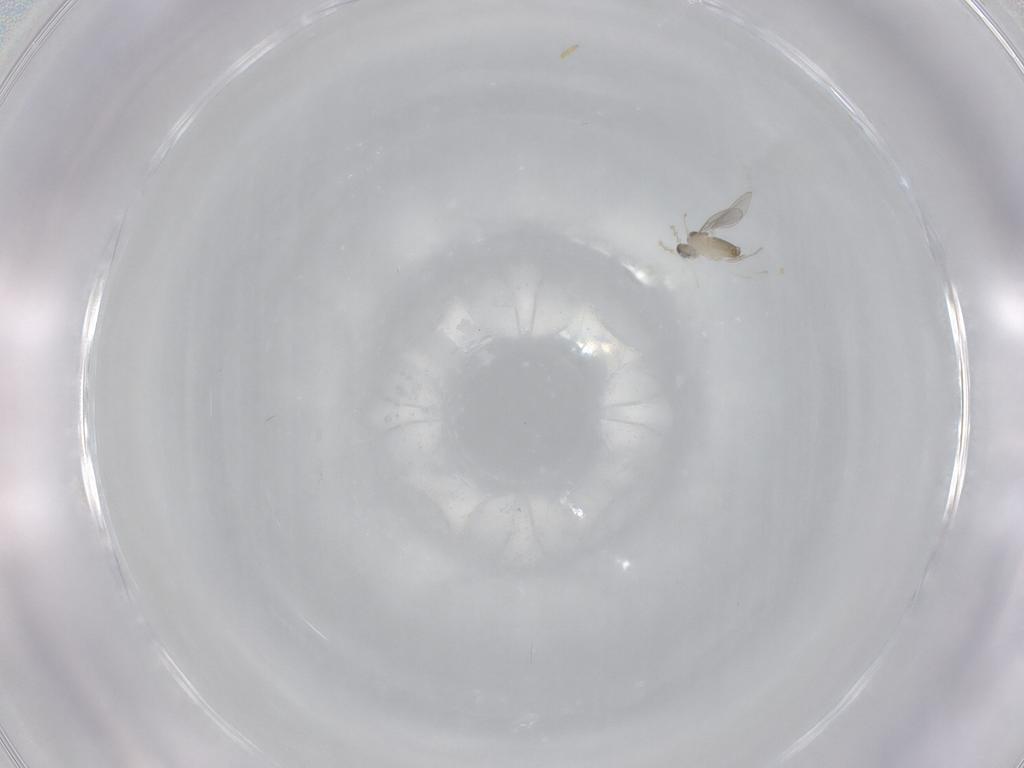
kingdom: Animalia
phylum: Arthropoda
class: Insecta
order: Diptera
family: Cecidomyiidae
